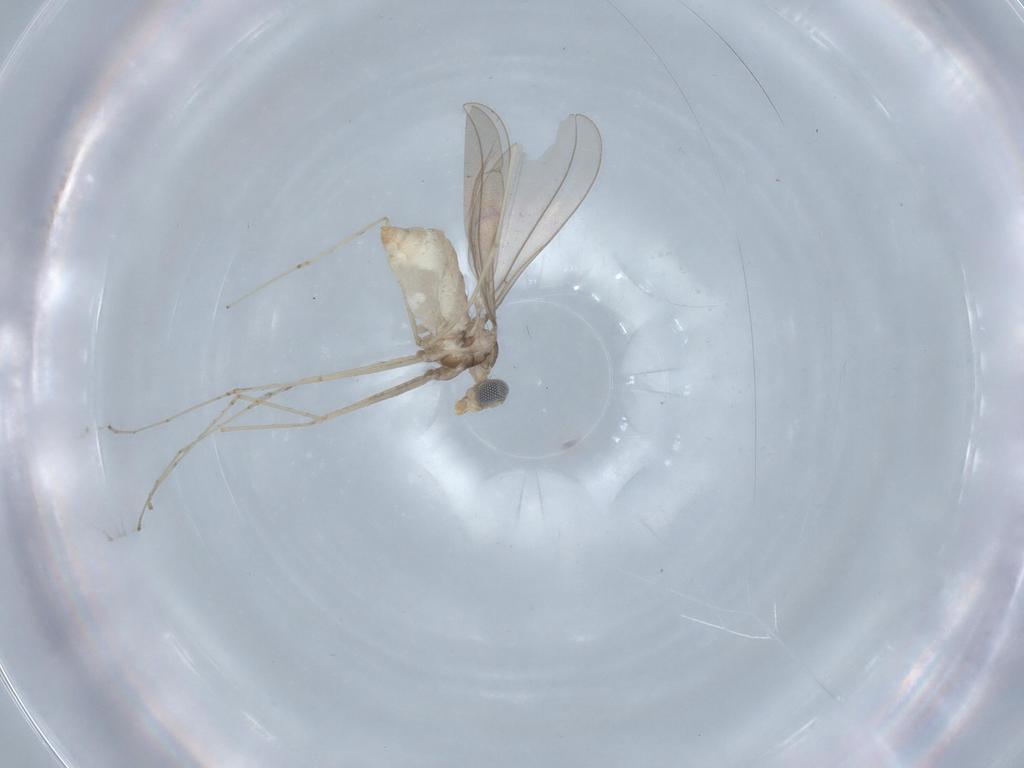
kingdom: Animalia
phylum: Arthropoda
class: Insecta
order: Diptera
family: Cecidomyiidae
